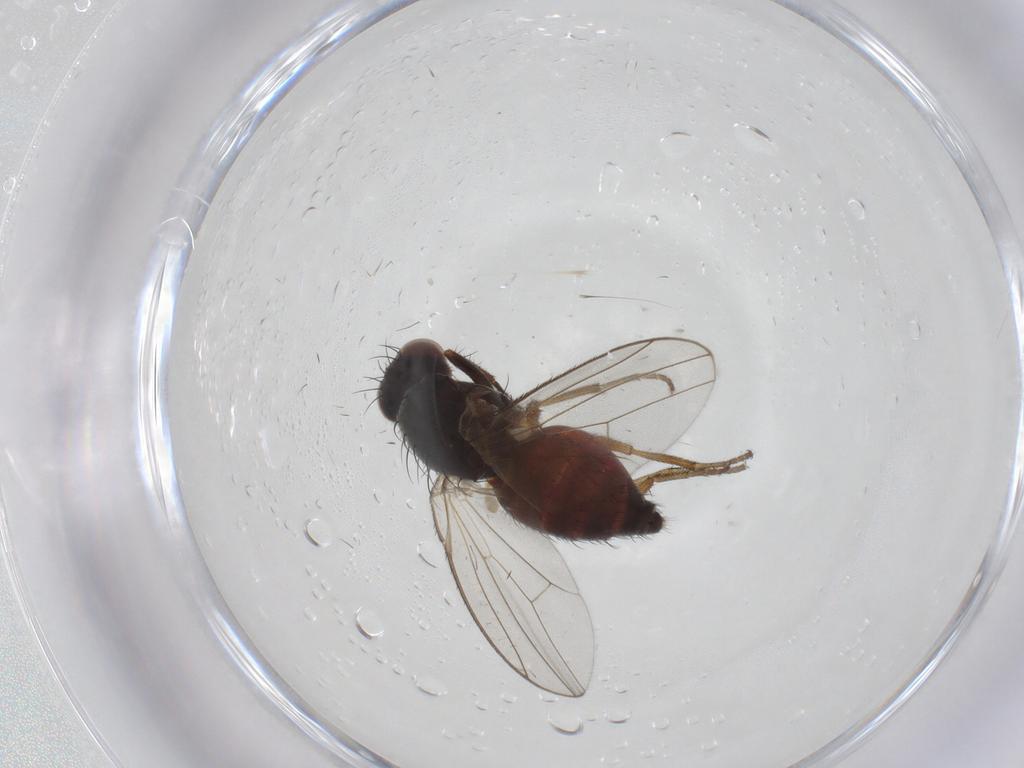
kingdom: Animalia
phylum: Arthropoda
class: Insecta
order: Diptera
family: Heleomyzidae
